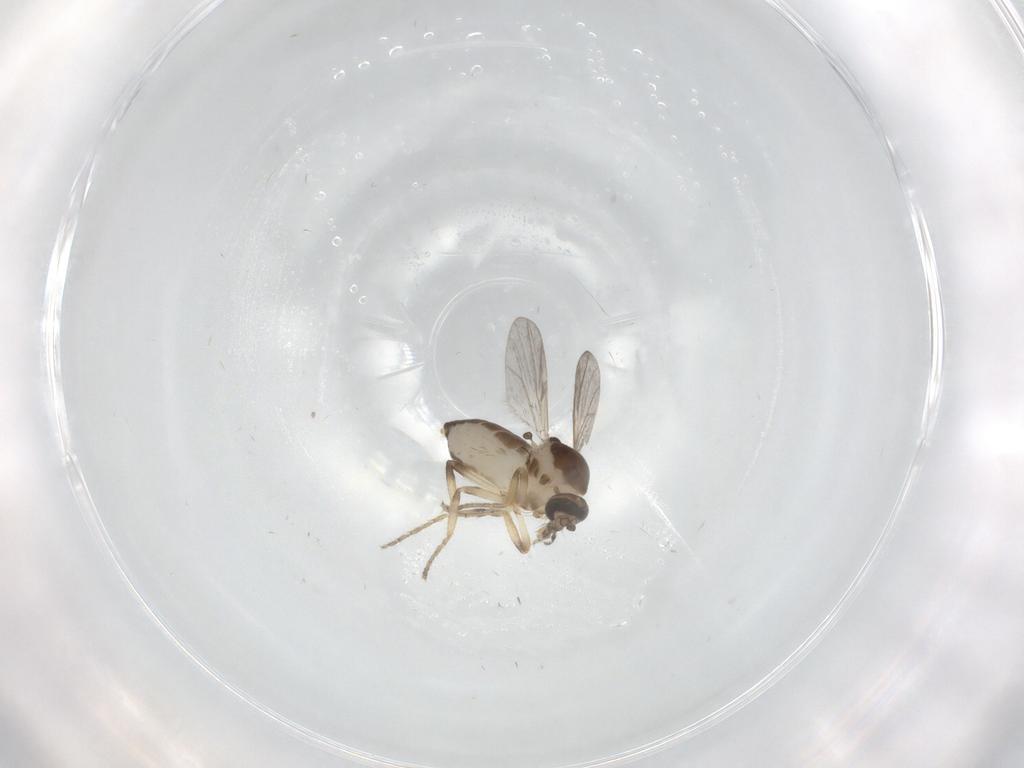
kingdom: Animalia
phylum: Arthropoda
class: Insecta
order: Diptera
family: Ceratopogonidae
